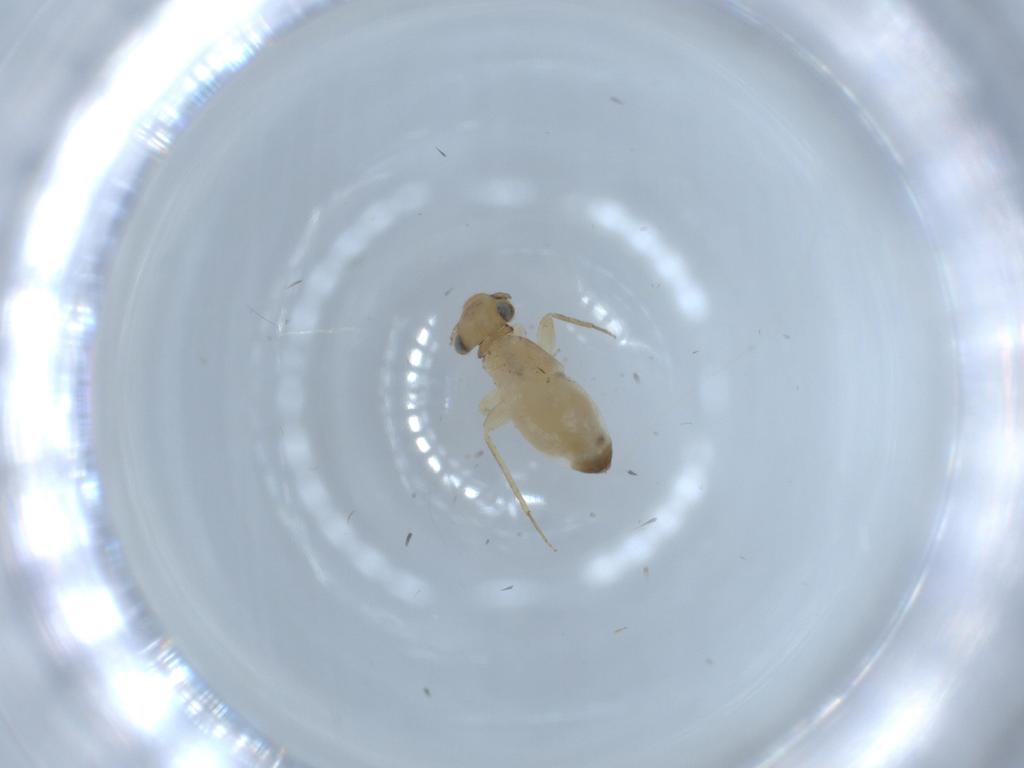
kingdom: Animalia
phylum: Arthropoda
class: Insecta
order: Psocodea
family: Lepidopsocidae
